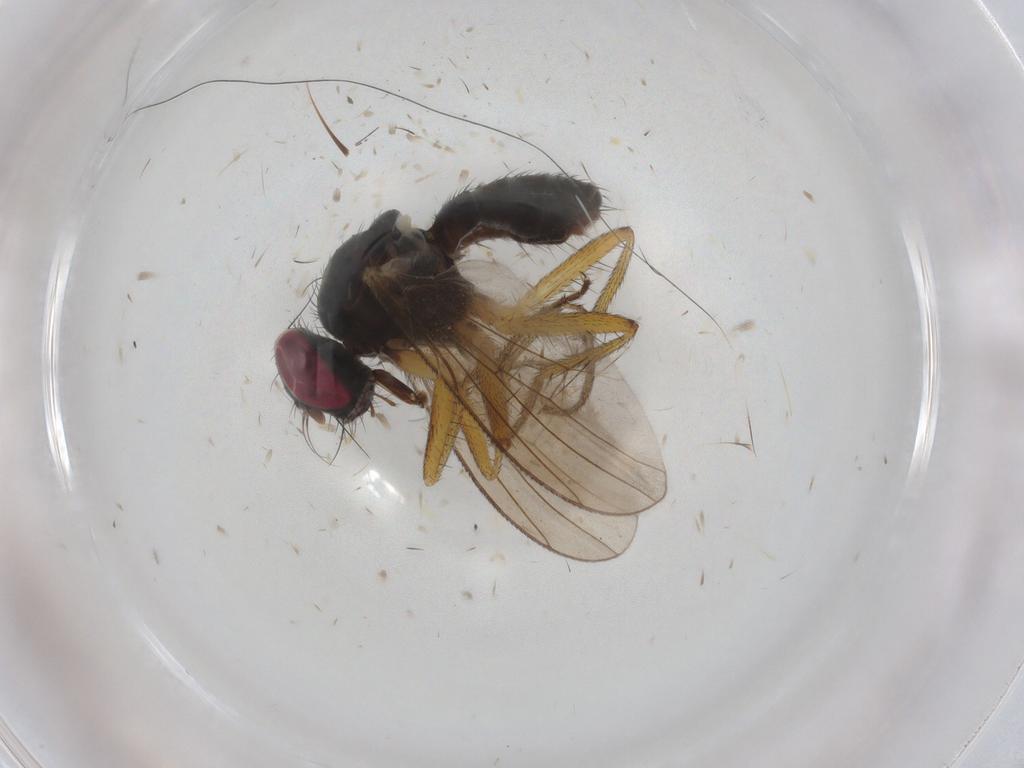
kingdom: Animalia
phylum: Arthropoda
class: Insecta
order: Diptera
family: Muscidae
